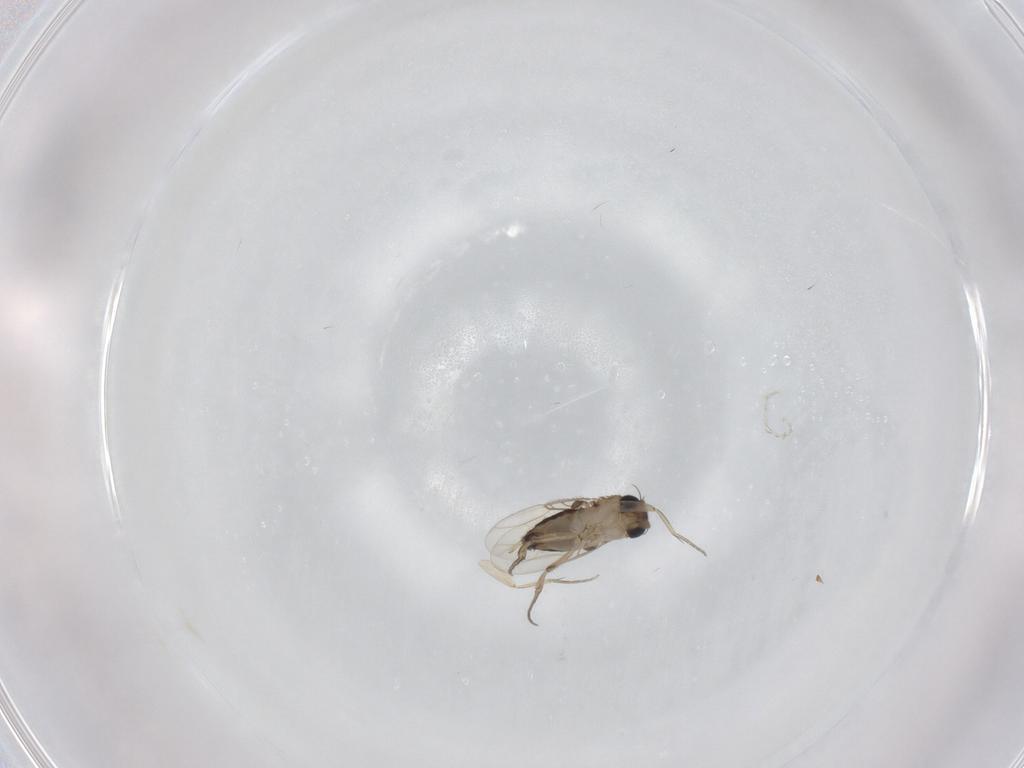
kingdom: Animalia
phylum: Arthropoda
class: Insecta
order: Diptera
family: Phoridae
